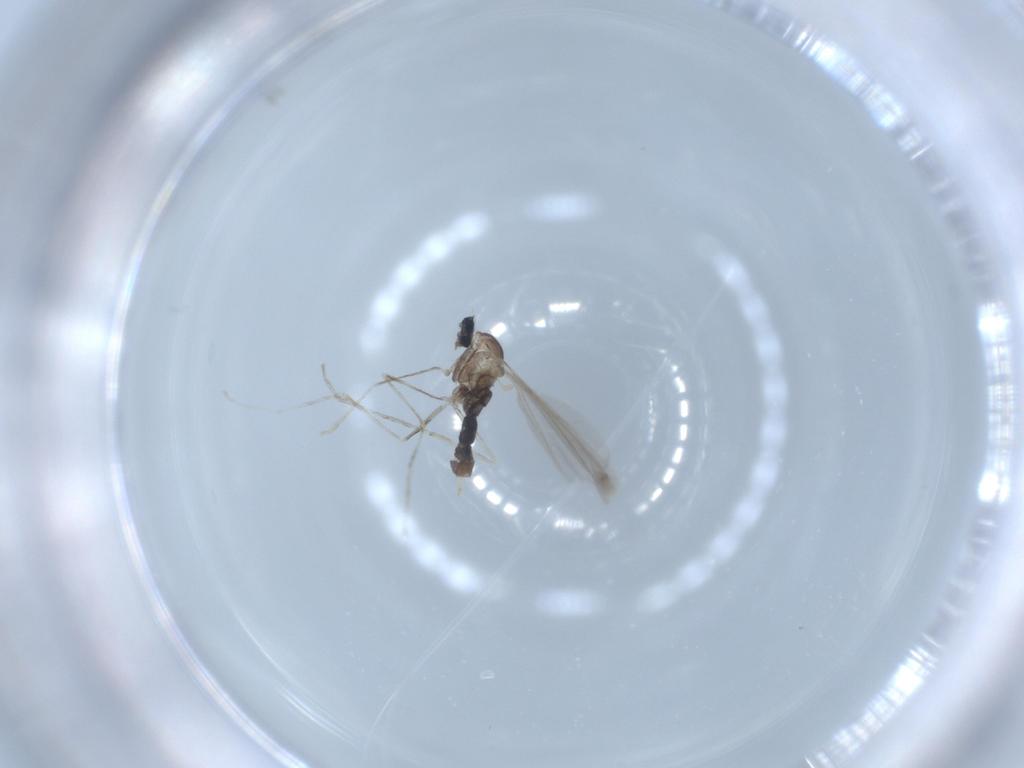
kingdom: Animalia
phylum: Arthropoda
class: Insecta
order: Diptera
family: Cecidomyiidae
